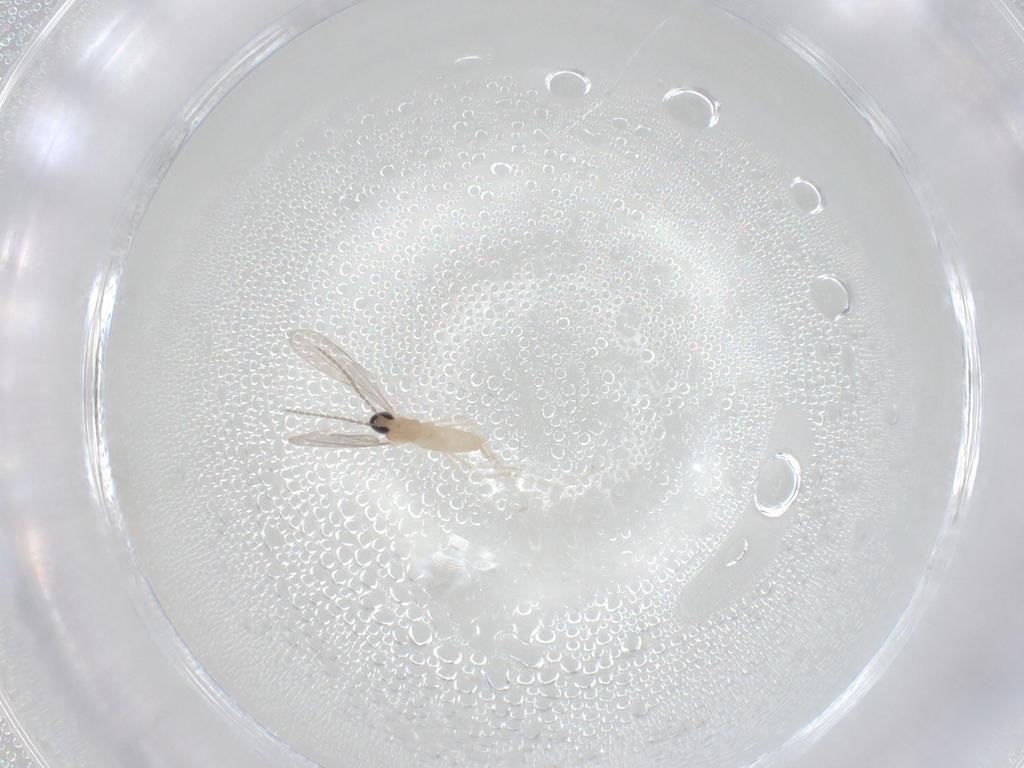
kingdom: Animalia
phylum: Arthropoda
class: Insecta
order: Diptera
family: Cecidomyiidae
